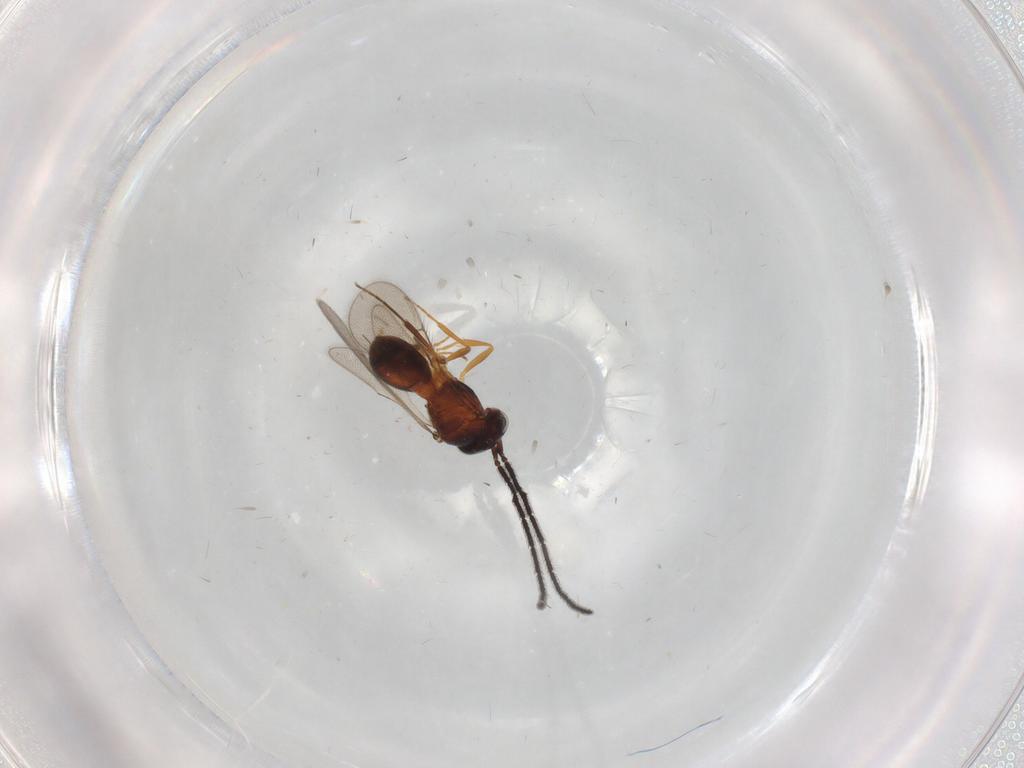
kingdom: Animalia
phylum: Arthropoda
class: Insecta
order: Hymenoptera
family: Scelionidae
